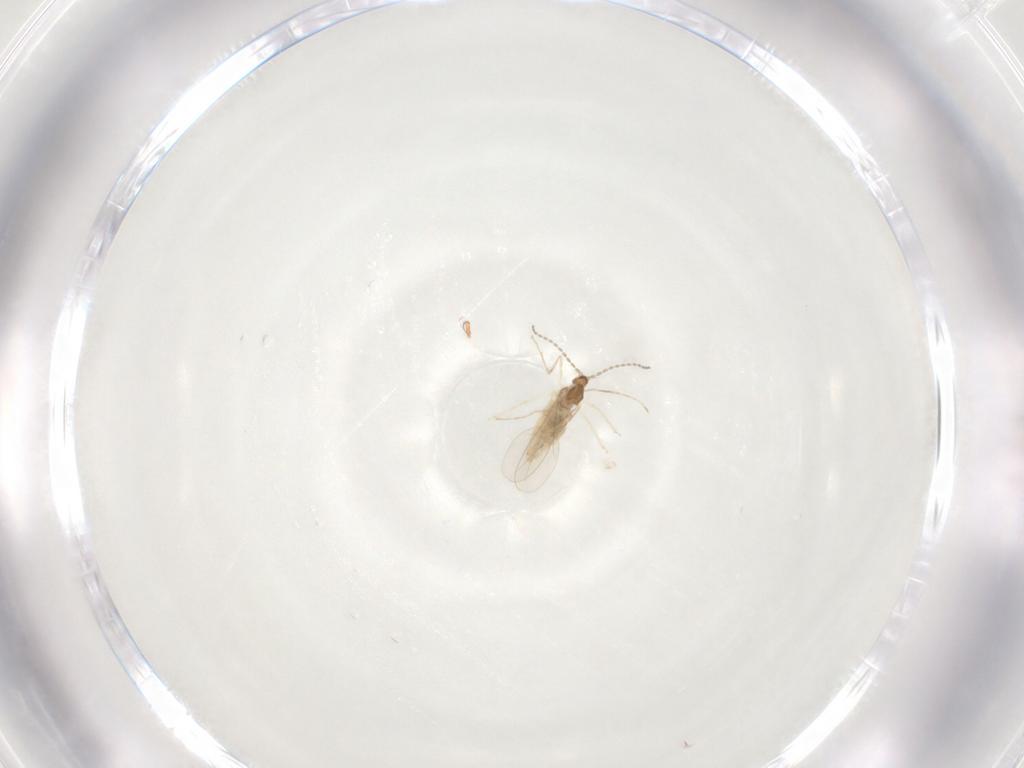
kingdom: Animalia
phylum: Arthropoda
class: Insecta
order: Diptera
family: Cecidomyiidae
